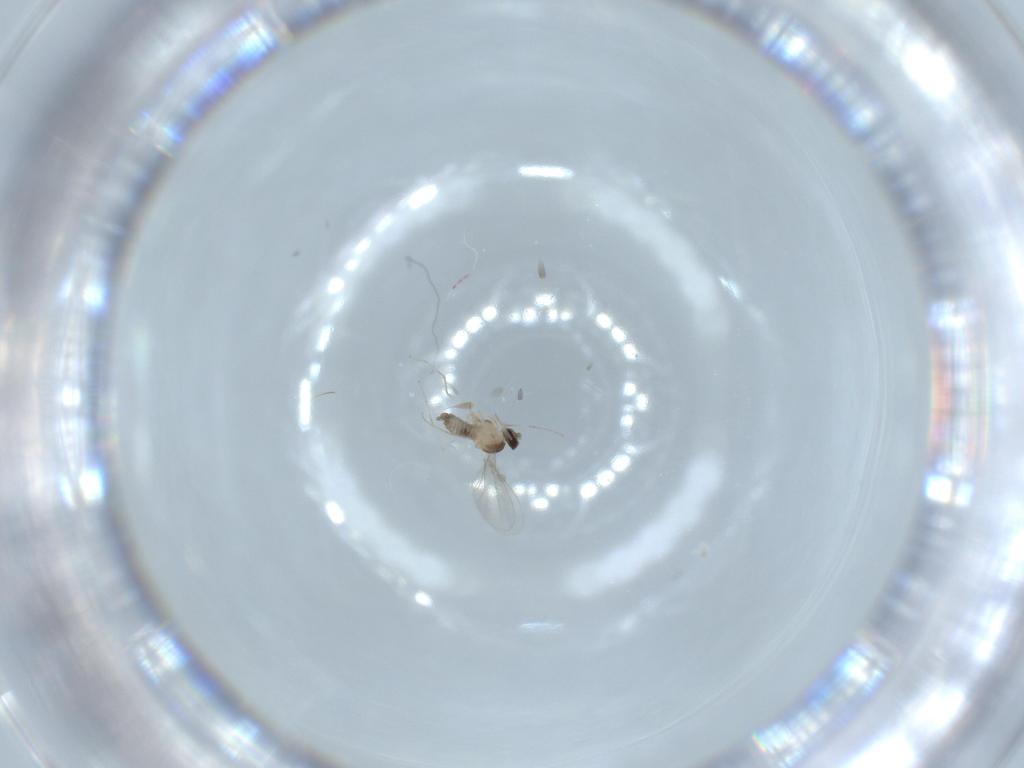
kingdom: Animalia
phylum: Arthropoda
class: Insecta
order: Diptera
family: Cecidomyiidae
